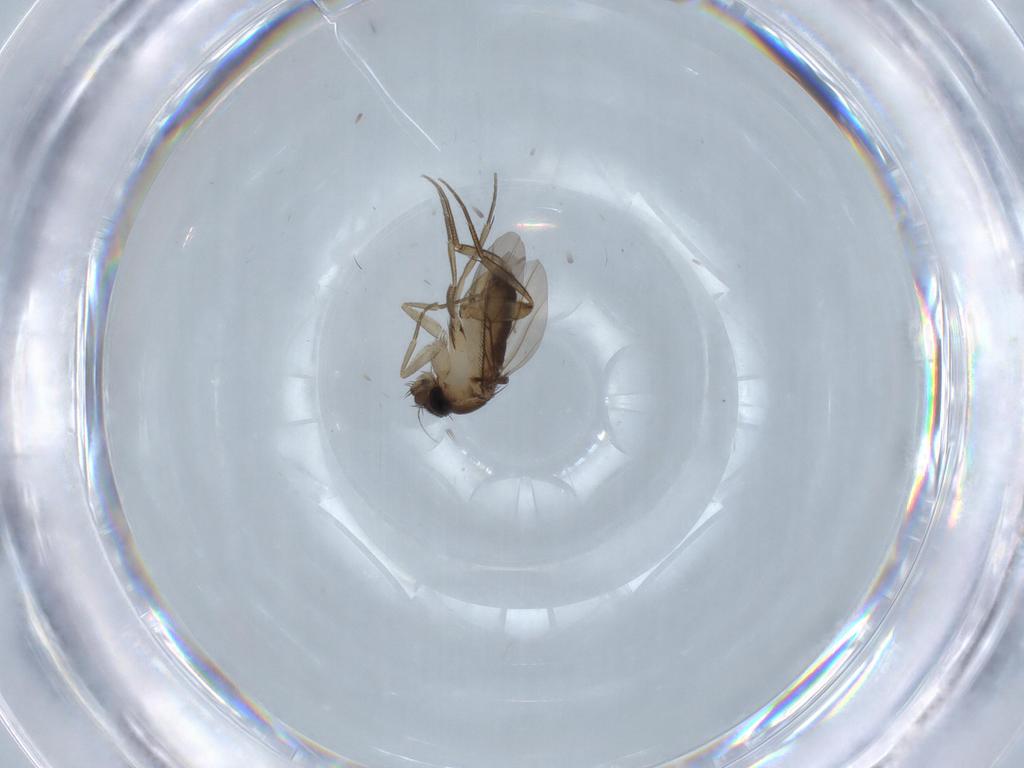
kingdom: Animalia
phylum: Arthropoda
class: Insecta
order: Diptera
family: Phoridae
